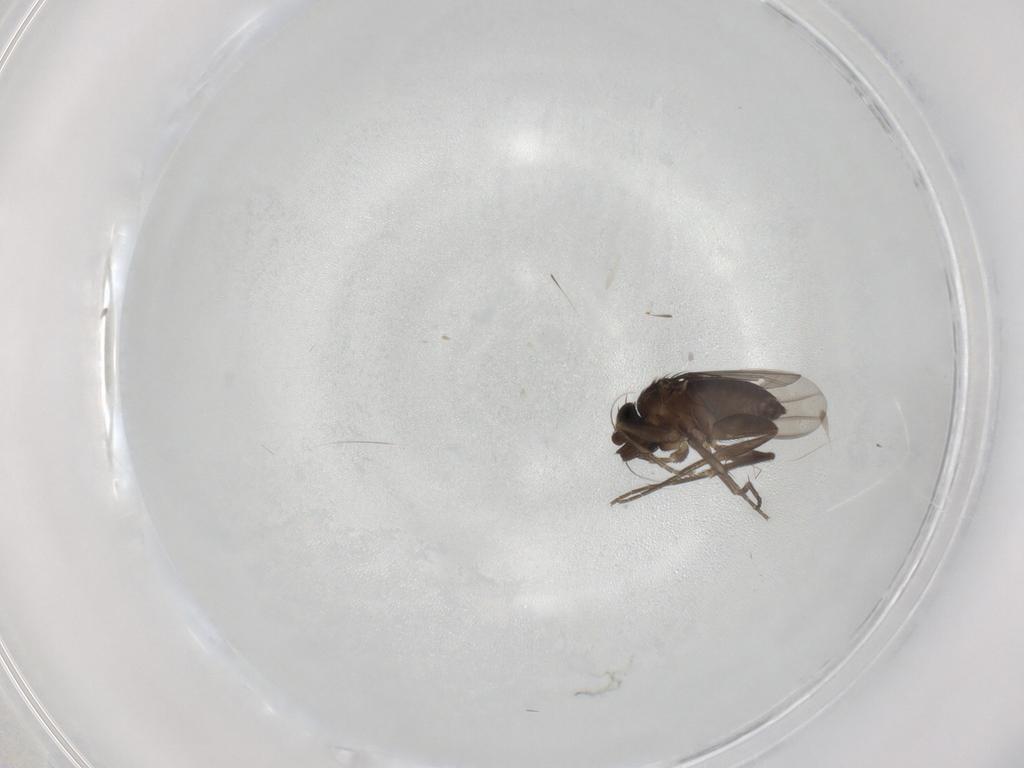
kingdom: Animalia
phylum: Arthropoda
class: Insecta
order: Diptera
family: Phoridae
